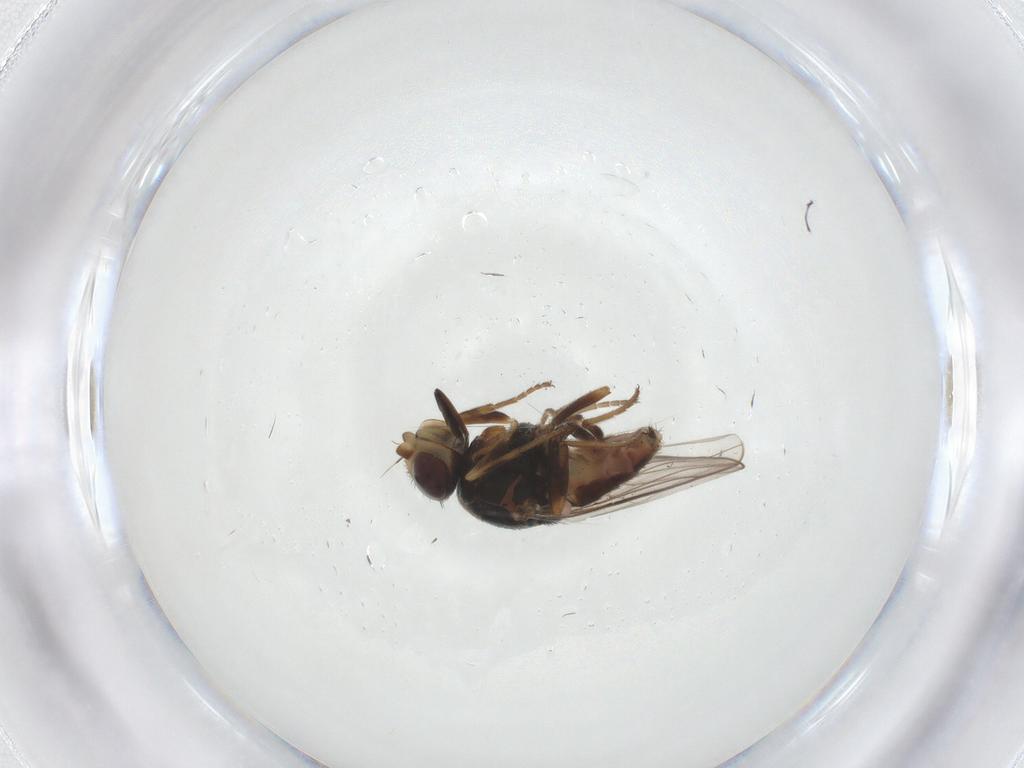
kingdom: Animalia
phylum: Arthropoda
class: Insecta
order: Diptera
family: Chloropidae
